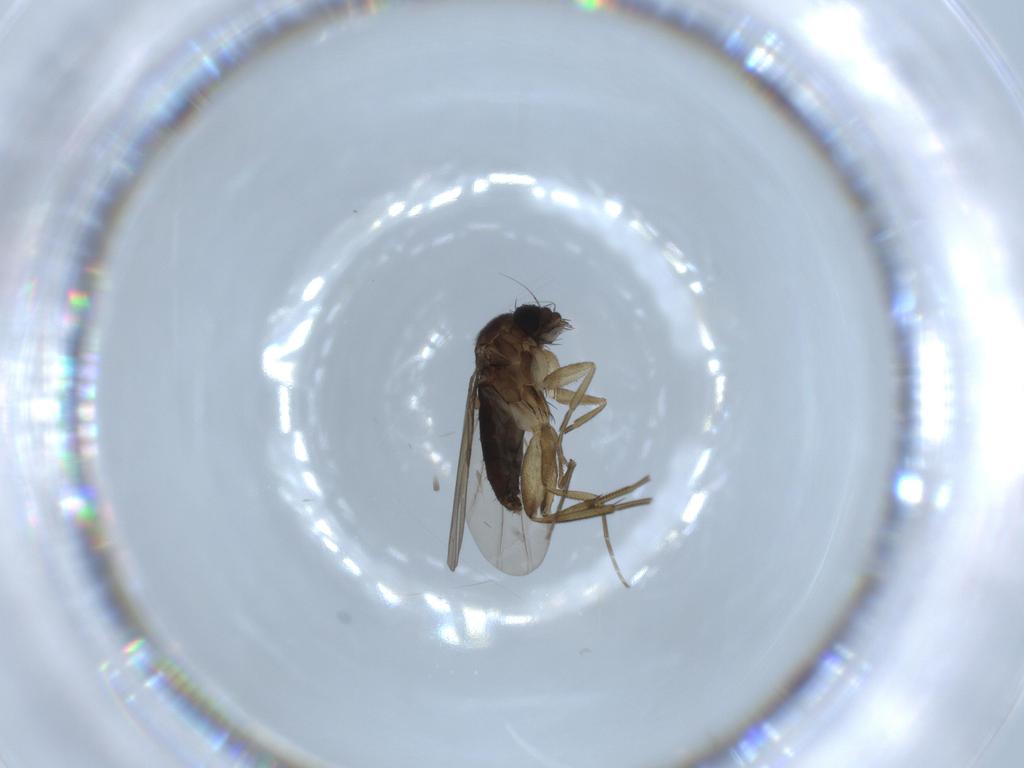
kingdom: Animalia
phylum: Arthropoda
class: Insecta
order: Diptera
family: Phoridae
